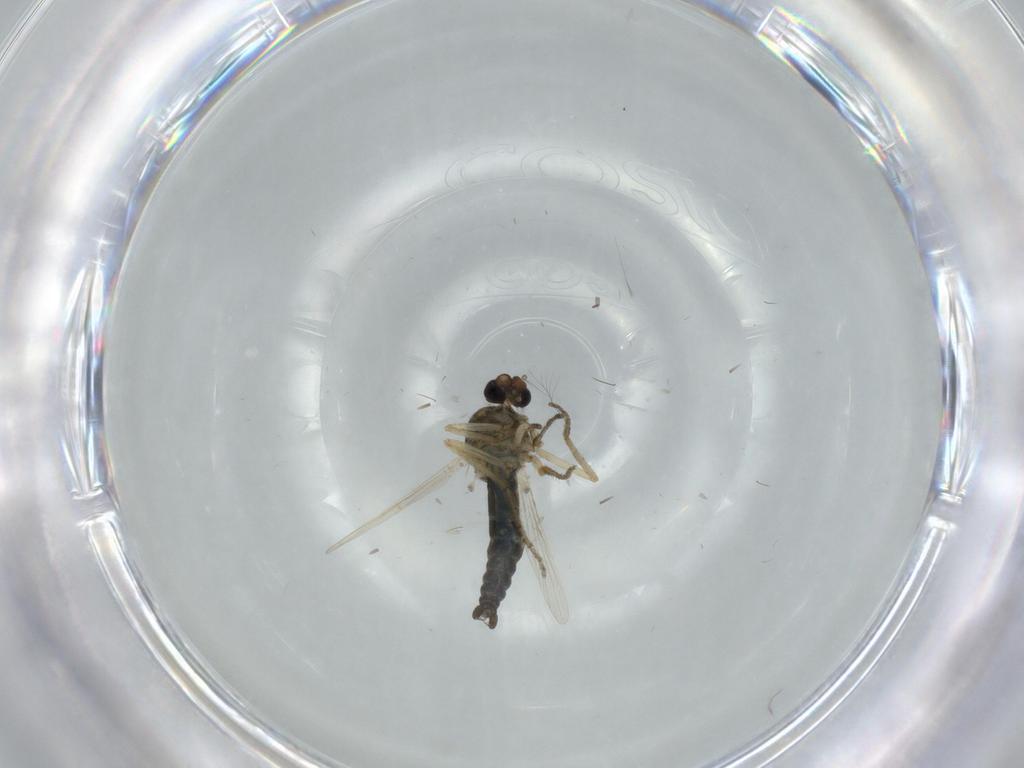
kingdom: Animalia
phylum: Arthropoda
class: Insecta
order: Diptera
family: Ceratopogonidae
